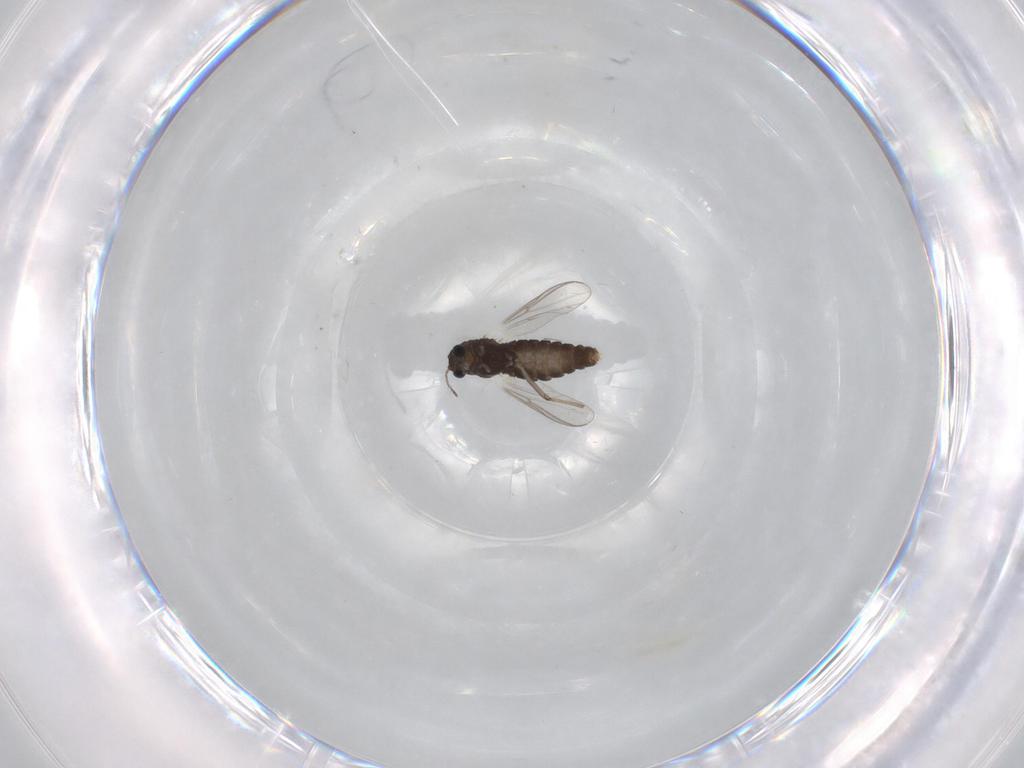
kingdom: Animalia
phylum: Arthropoda
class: Insecta
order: Diptera
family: Chironomidae
